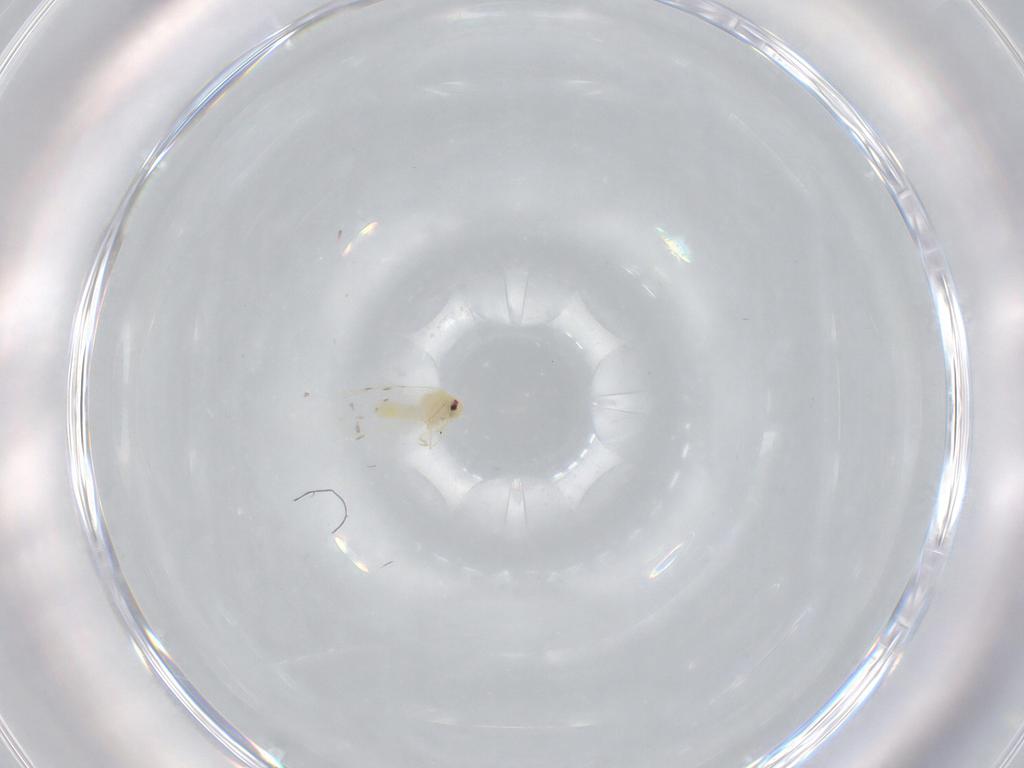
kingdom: Animalia
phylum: Arthropoda
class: Insecta
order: Hemiptera
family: Aleyrodidae
